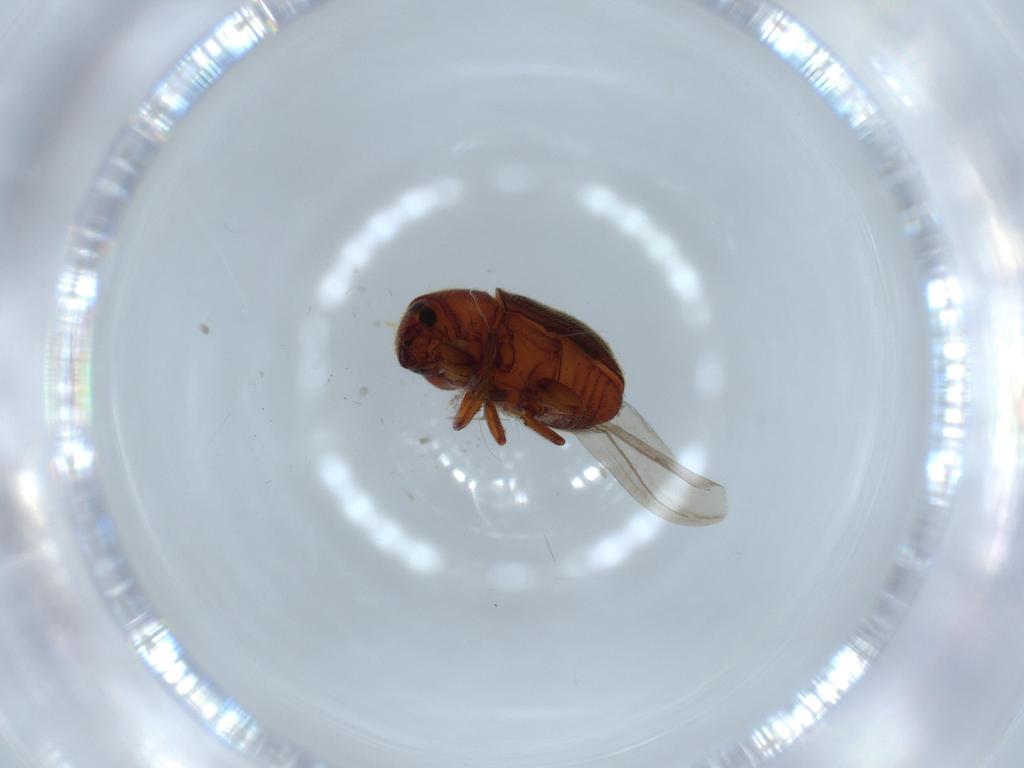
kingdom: Animalia
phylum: Arthropoda
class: Insecta
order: Coleoptera
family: Curculionidae
